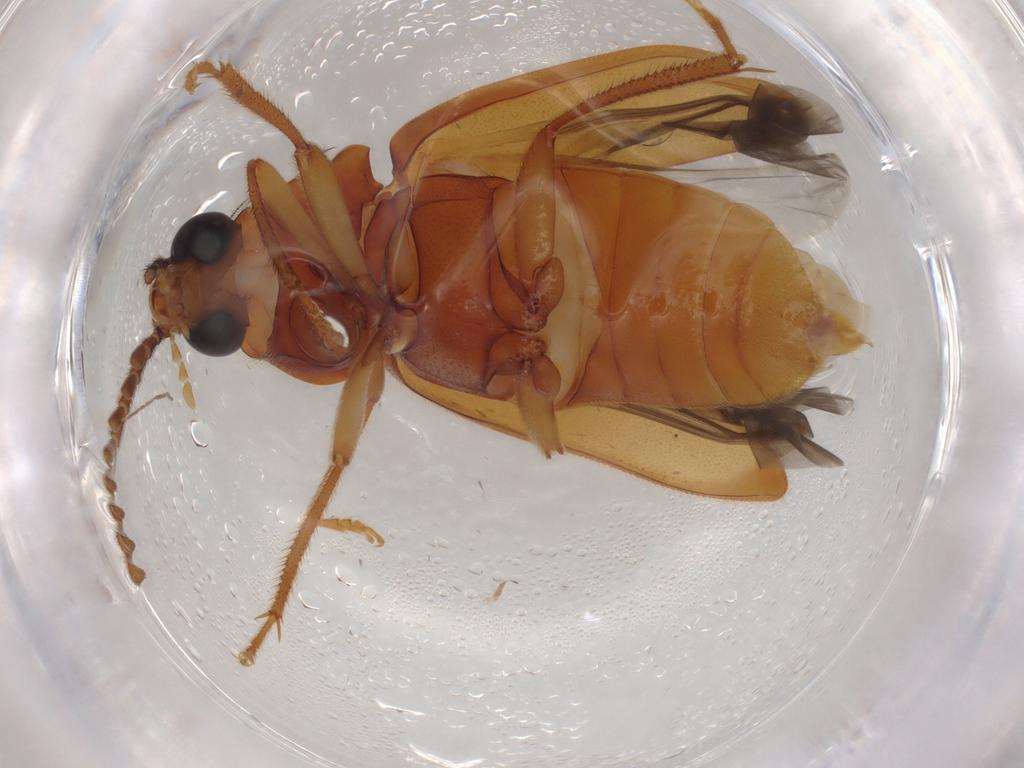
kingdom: Animalia
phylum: Arthropoda
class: Insecta
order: Coleoptera
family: Ptilodactylidae
